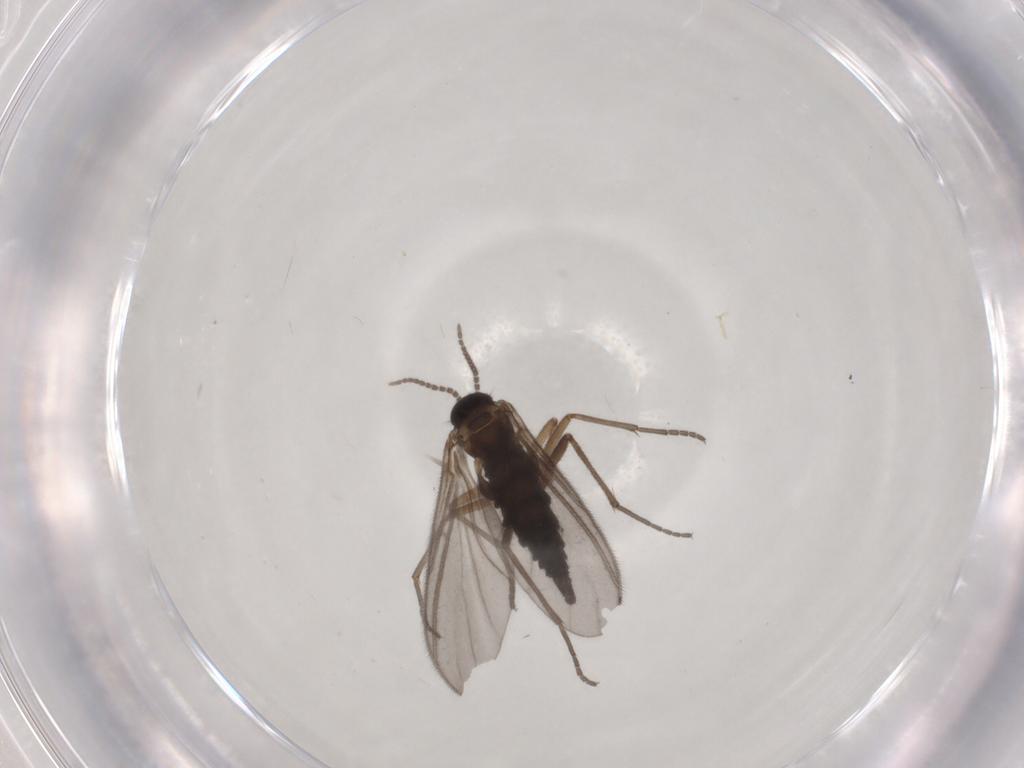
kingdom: Animalia
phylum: Arthropoda
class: Insecta
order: Diptera
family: Sciaridae
